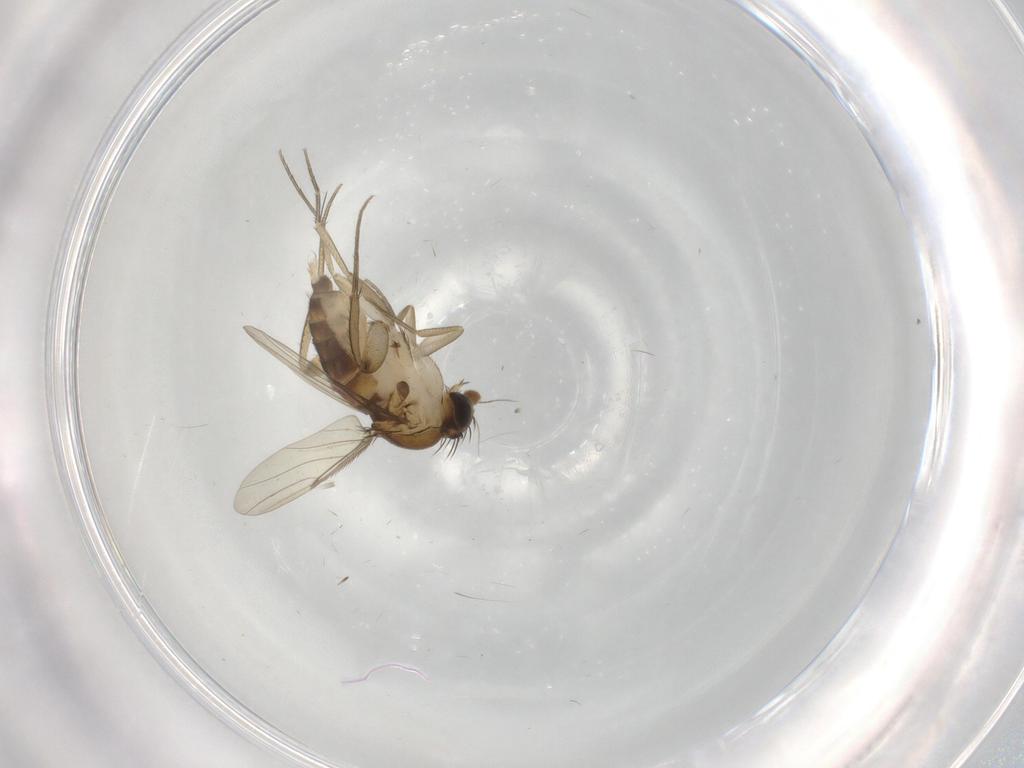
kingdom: Animalia
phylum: Arthropoda
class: Insecta
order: Diptera
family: Phoridae
